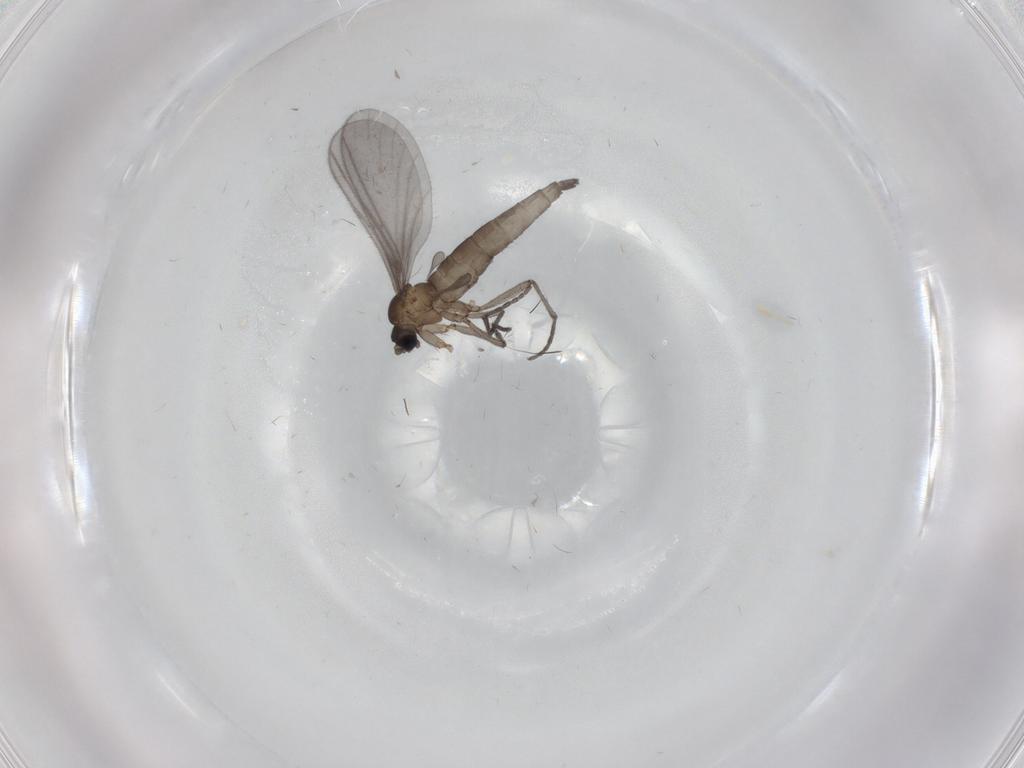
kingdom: Animalia
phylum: Arthropoda
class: Insecta
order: Diptera
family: Sciaridae
